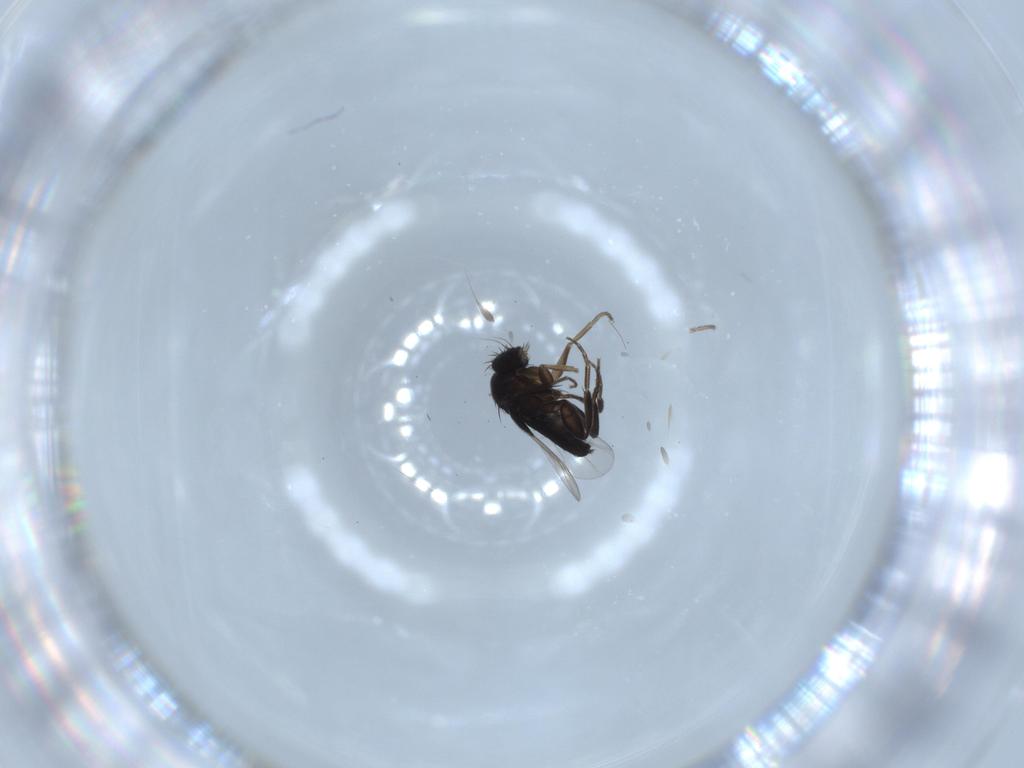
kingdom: Animalia
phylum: Arthropoda
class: Insecta
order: Diptera
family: Phoridae
